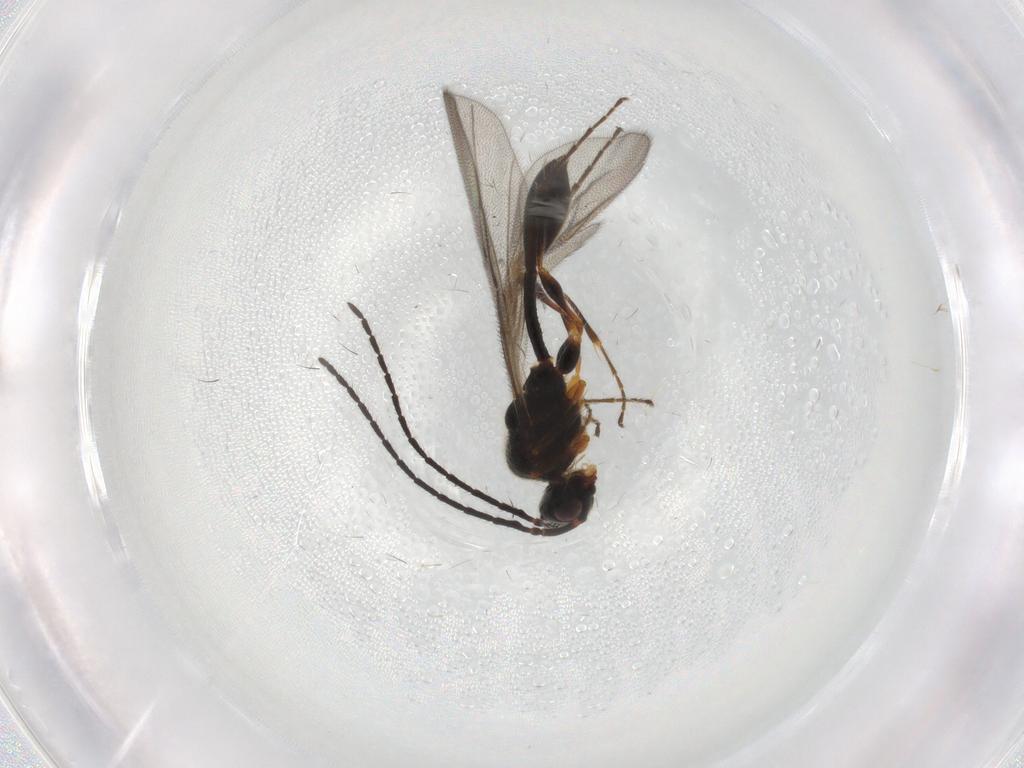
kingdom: Animalia
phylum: Arthropoda
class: Insecta
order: Hymenoptera
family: Diapriidae
